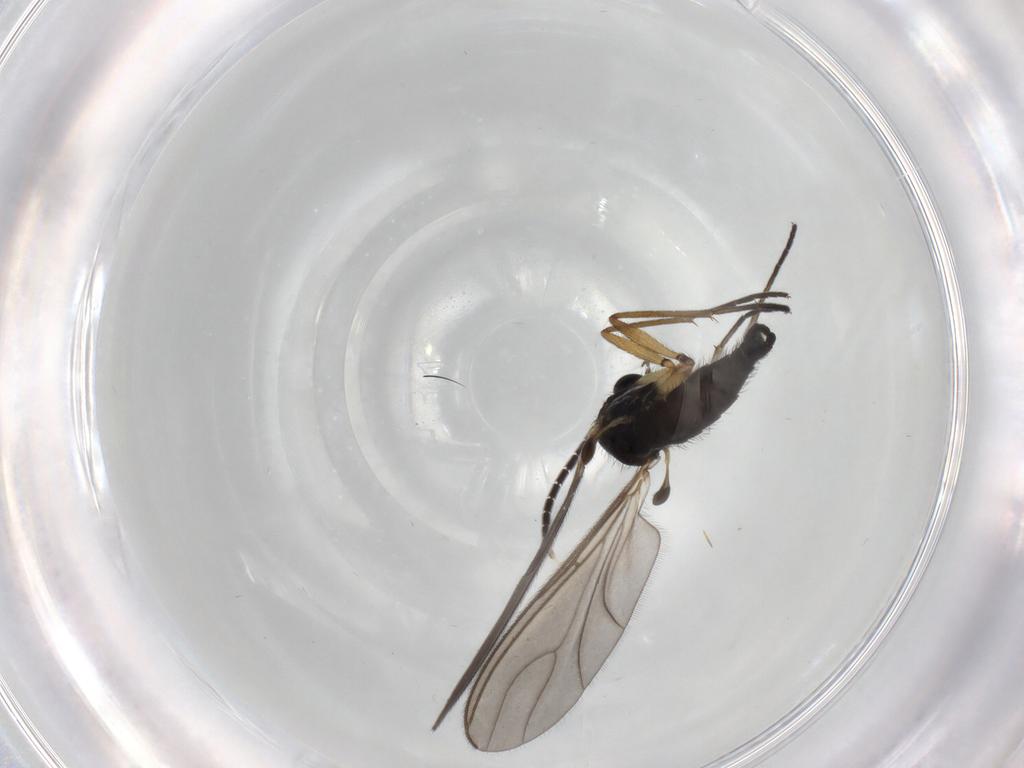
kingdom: Animalia
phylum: Arthropoda
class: Insecta
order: Diptera
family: Sciaridae
